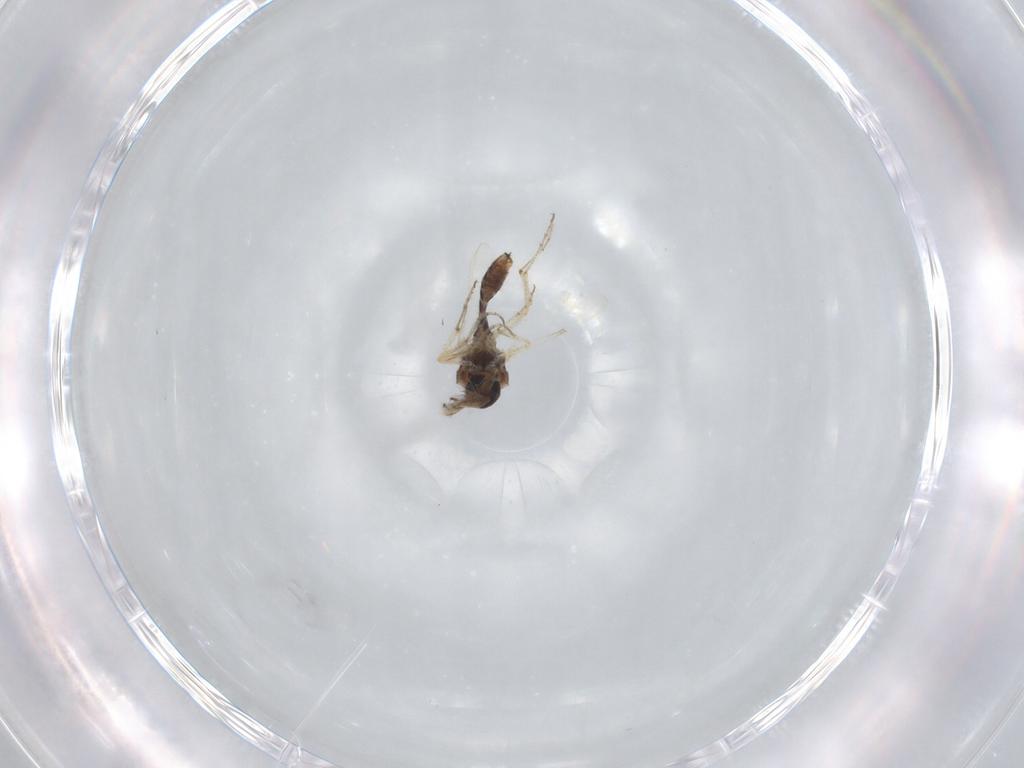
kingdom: Animalia
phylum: Arthropoda
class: Insecta
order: Diptera
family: Ceratopogonidae
